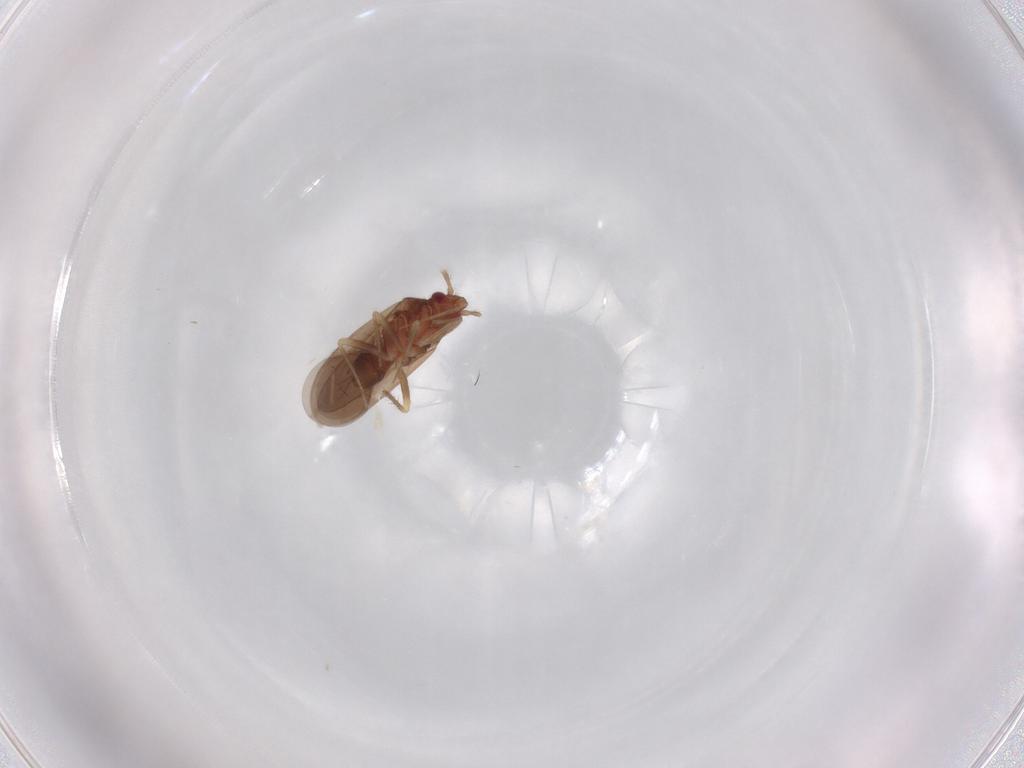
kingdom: Animalia
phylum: Arthropoda
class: Insecta
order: Hemiptera
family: Ceratocombidae
